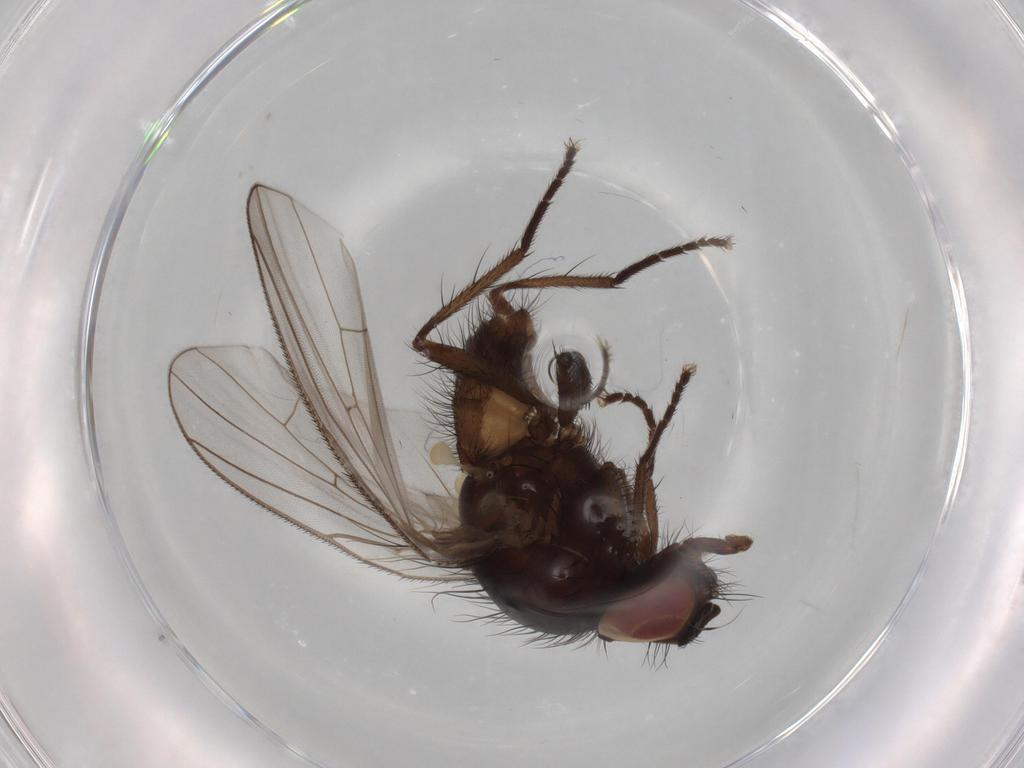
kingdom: Animalia
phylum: Arthropoda
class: Insecta
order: Diptera
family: Anthomyiidae
